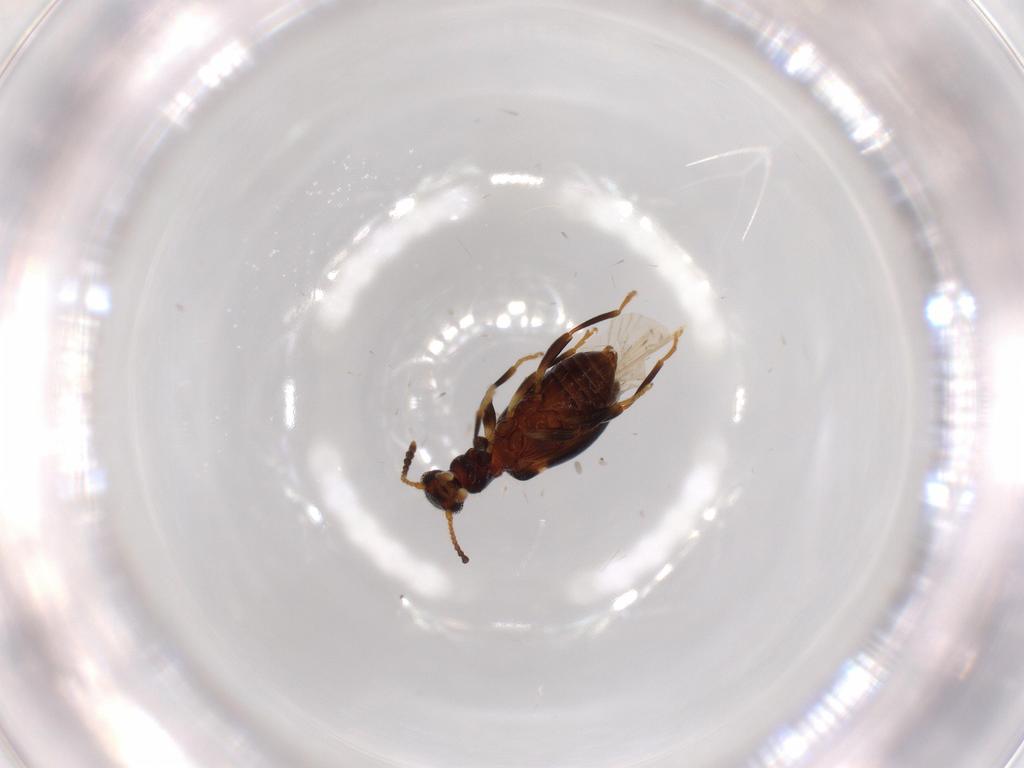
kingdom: Animalia
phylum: Arthropoda
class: Insecta
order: Coleoptera
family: Anthicidae
